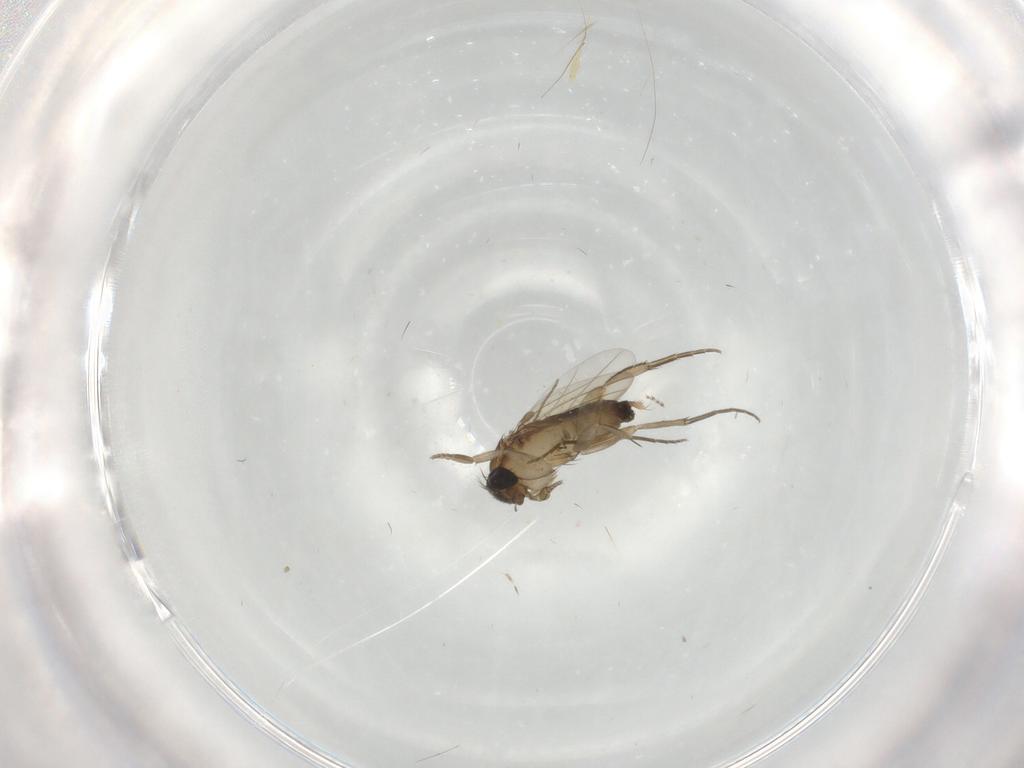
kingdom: Animalia
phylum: Arthropoda
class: Insecta
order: Diptera
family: Phoridae
